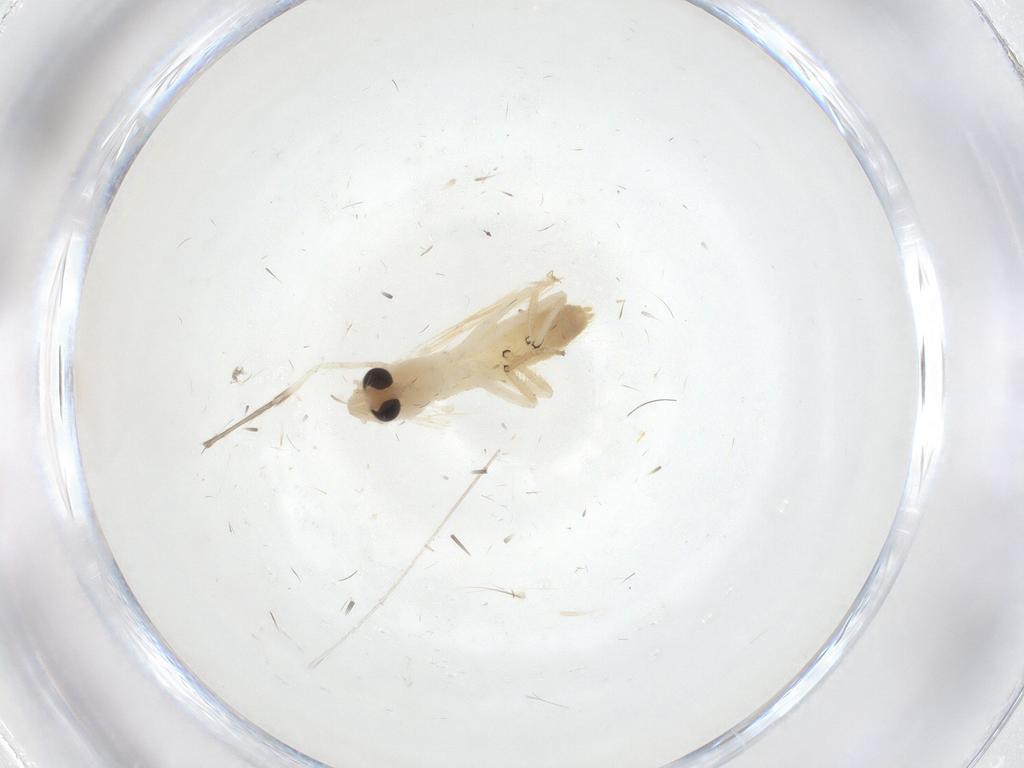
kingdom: Animalia
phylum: Arthropoda
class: Insecta
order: Diptera
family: Chironomidae
